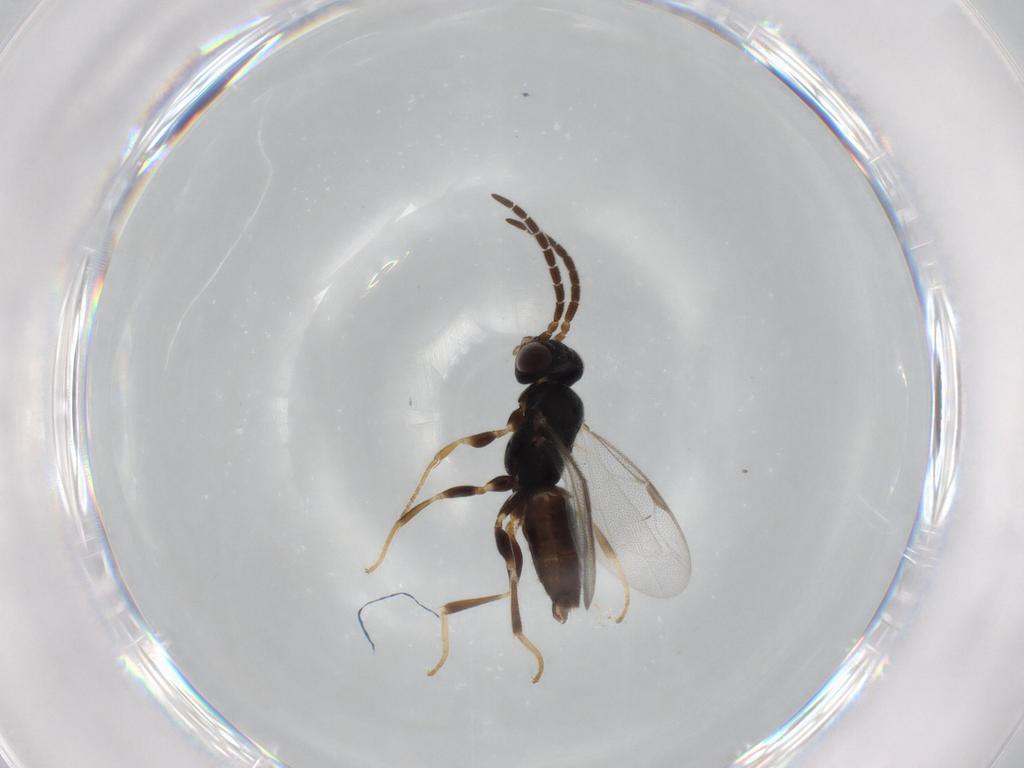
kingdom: Animalia
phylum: Arthropoda
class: Insecta
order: Hymenoptera
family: Dryinidae
